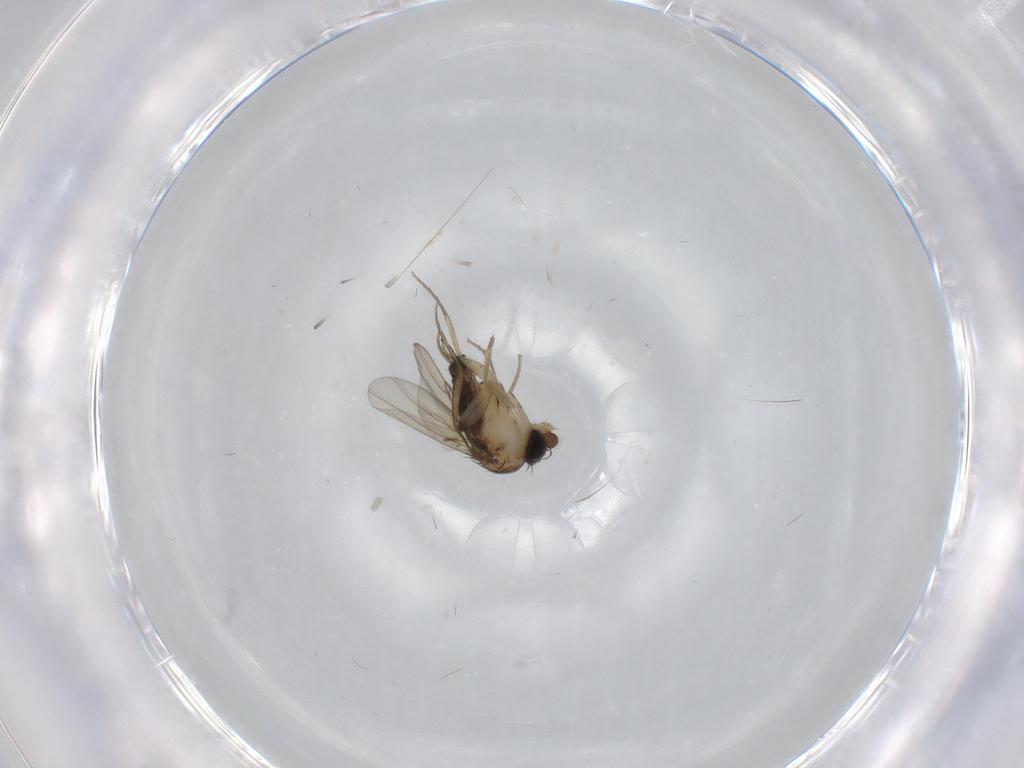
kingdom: Animalia
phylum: Arthropoda
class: Insecta
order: Diptera
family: Phoridae
